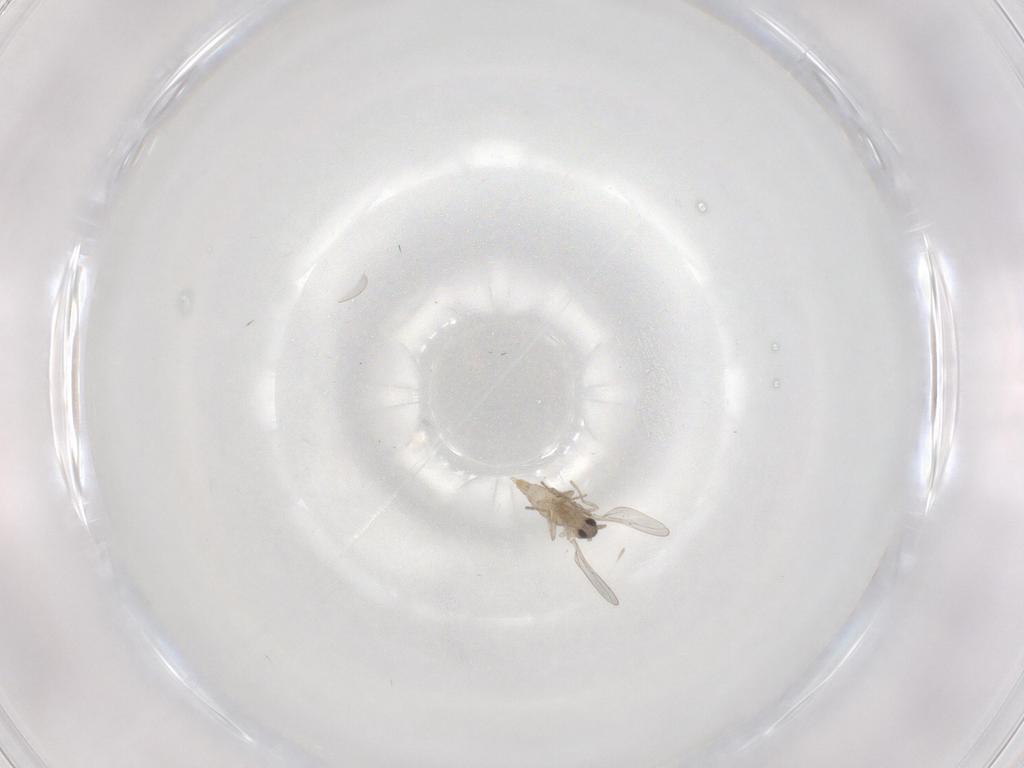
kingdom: Animalia
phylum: Arthropoda
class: Insecta
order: Diptera
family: Cecidomyiidae
